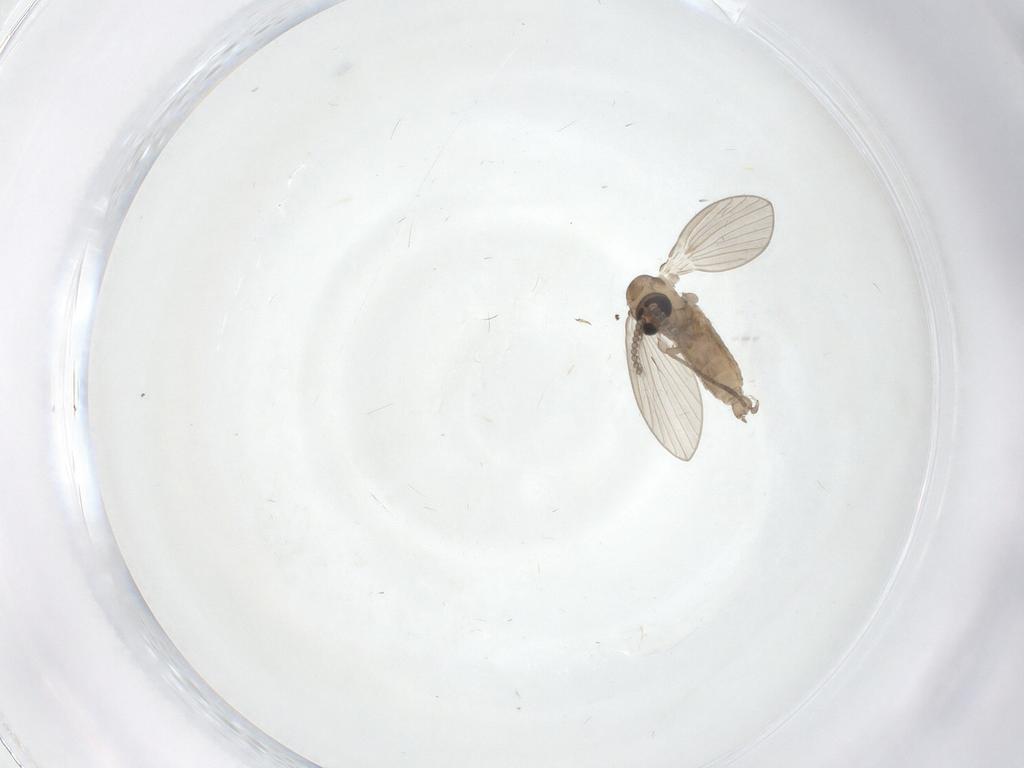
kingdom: Animalia
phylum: Arthropoda
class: Insecta
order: Diptera
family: Psychodidae
